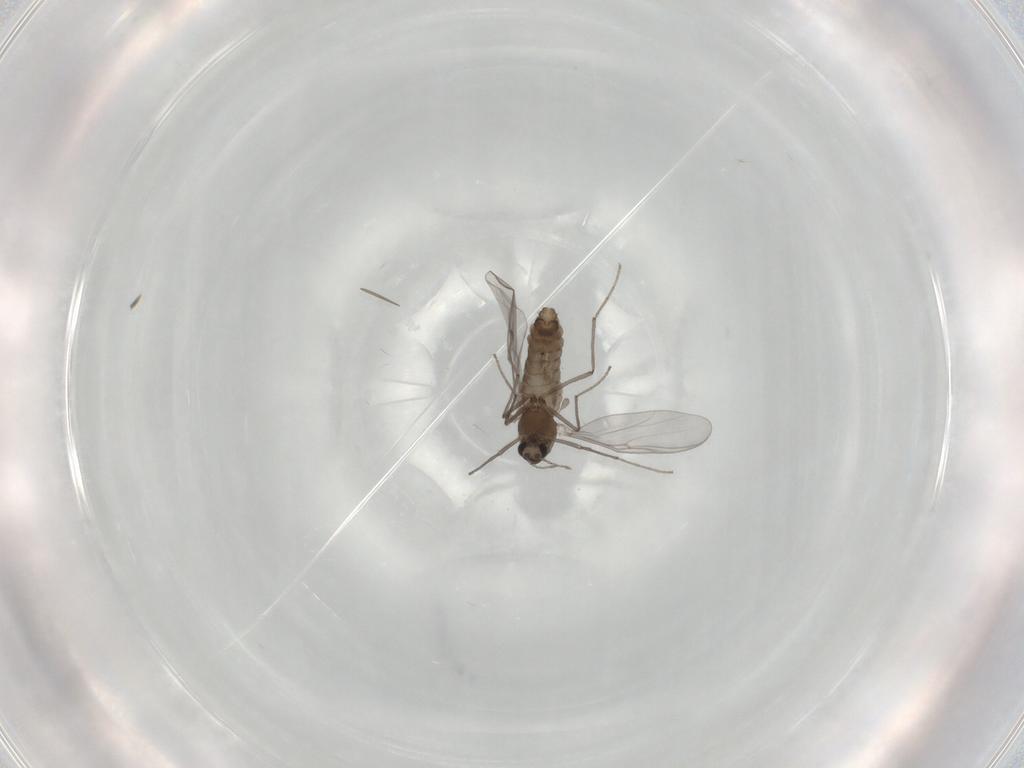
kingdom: Animalia
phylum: Arthropoda
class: Insecta
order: Diptera
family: Chironomidae
